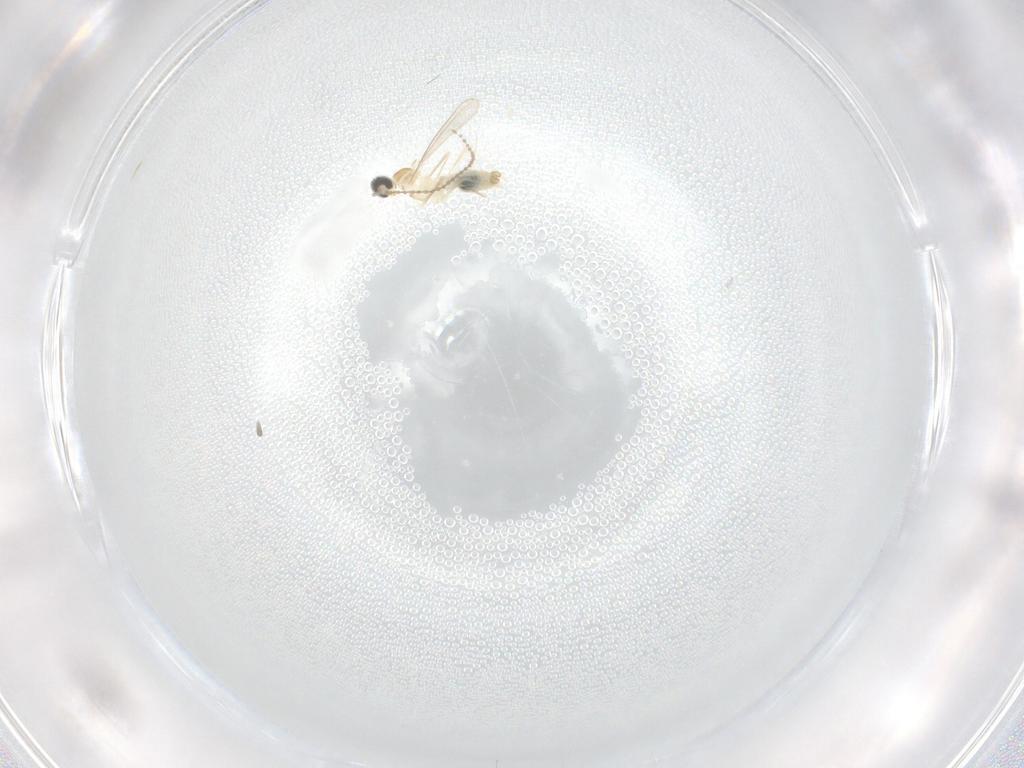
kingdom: Animalia
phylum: Arthropoda
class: Insecta
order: Diptera
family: Cecidomyiidae
